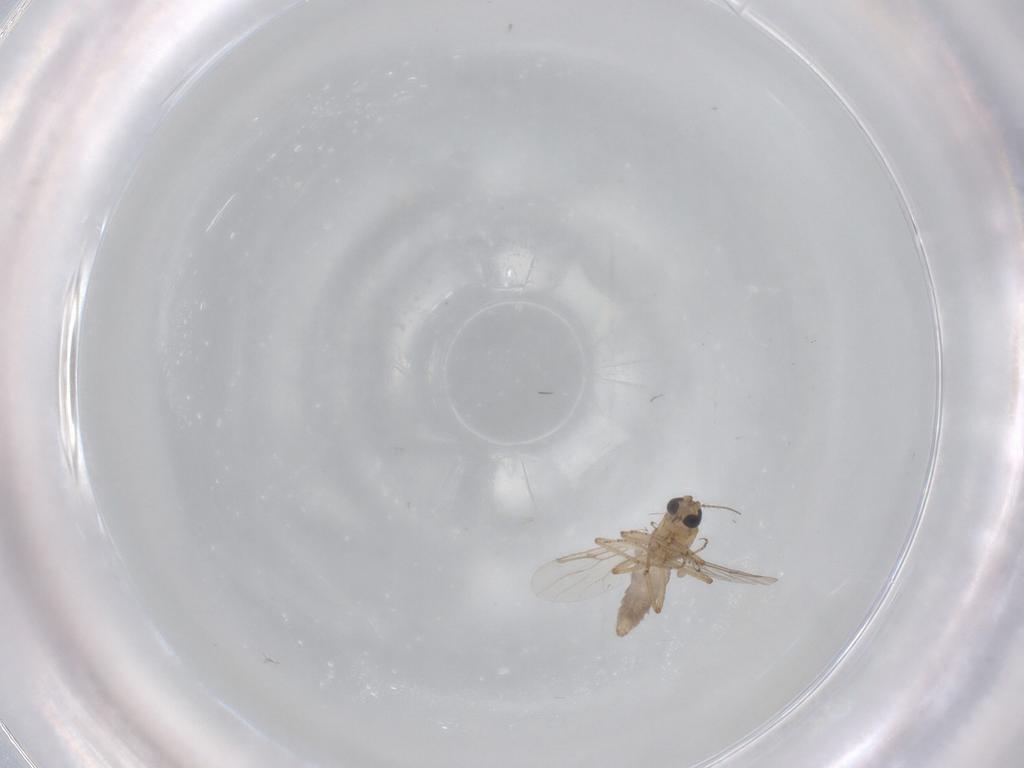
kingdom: Animalia
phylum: Arthropoda
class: Insecta
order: Diptera
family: Ceratopogonidae
